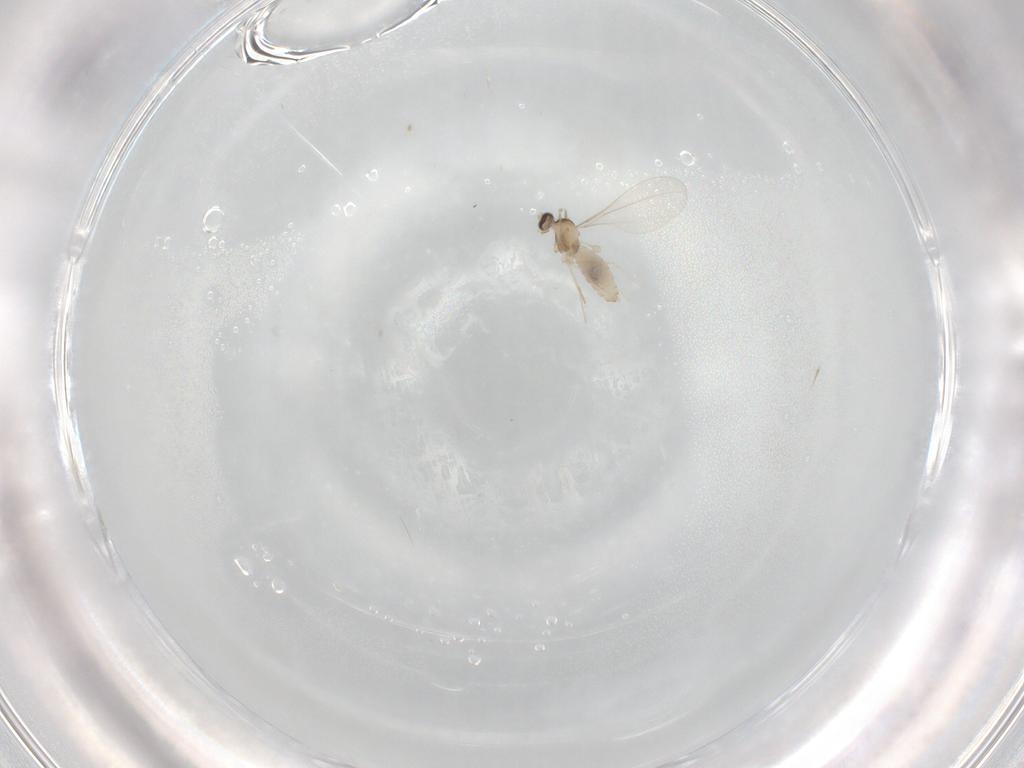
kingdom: Animalia
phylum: Arthropoda
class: Insecta
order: Diptera
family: Cecidomyiidae
